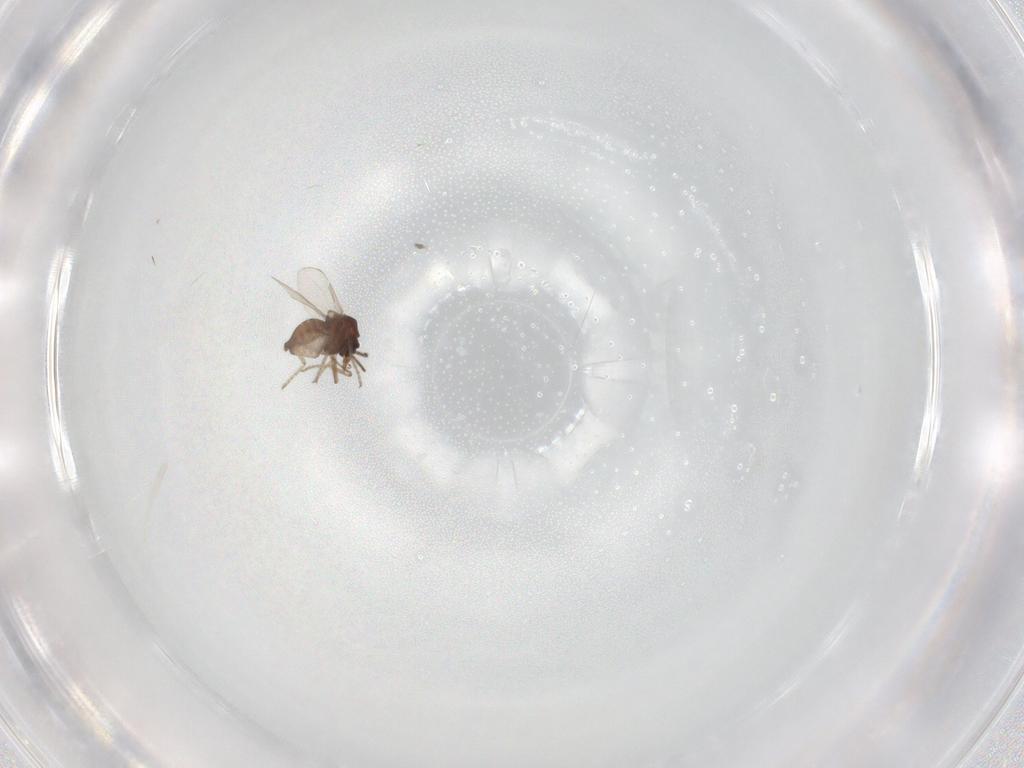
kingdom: Animalia
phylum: Arthropoda
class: Insecta
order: Diptera
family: Ceratopogonidae
